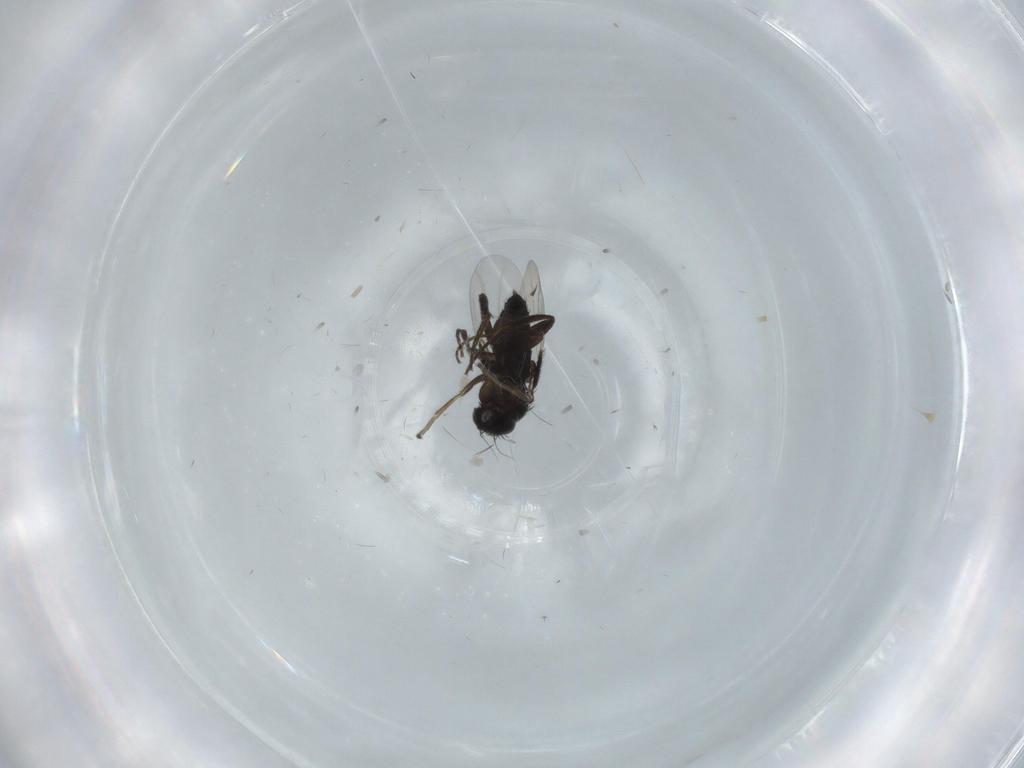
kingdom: Animalia
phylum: Arthropoda
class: Insecta
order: Diptera
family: Phoridae
